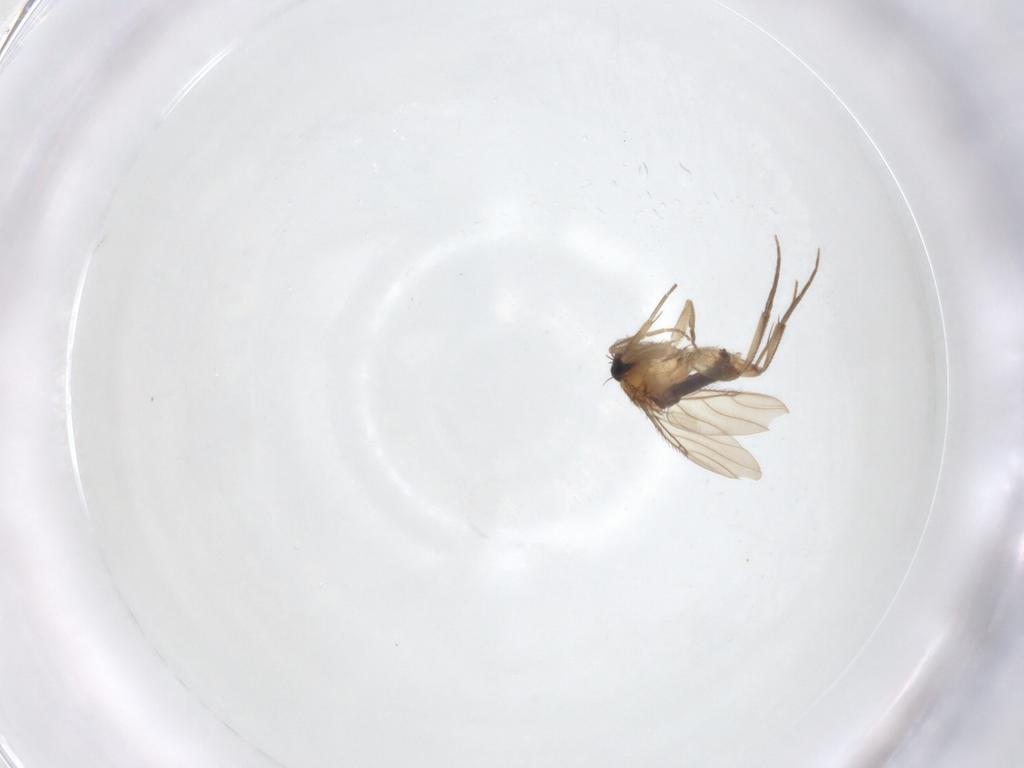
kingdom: Animalia
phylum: Arthropoda
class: Insecta
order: Diptera
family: Phoridae
